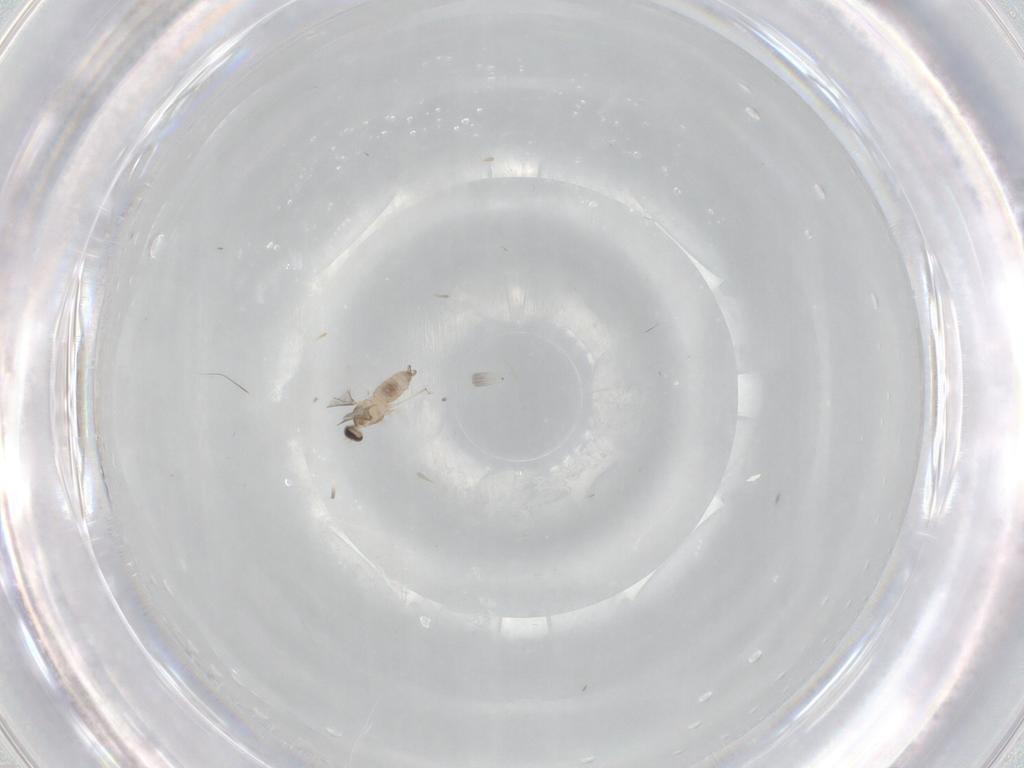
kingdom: Animalia
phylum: Arthropoda
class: Insecta
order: Diptera
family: Cecidomyiidae
